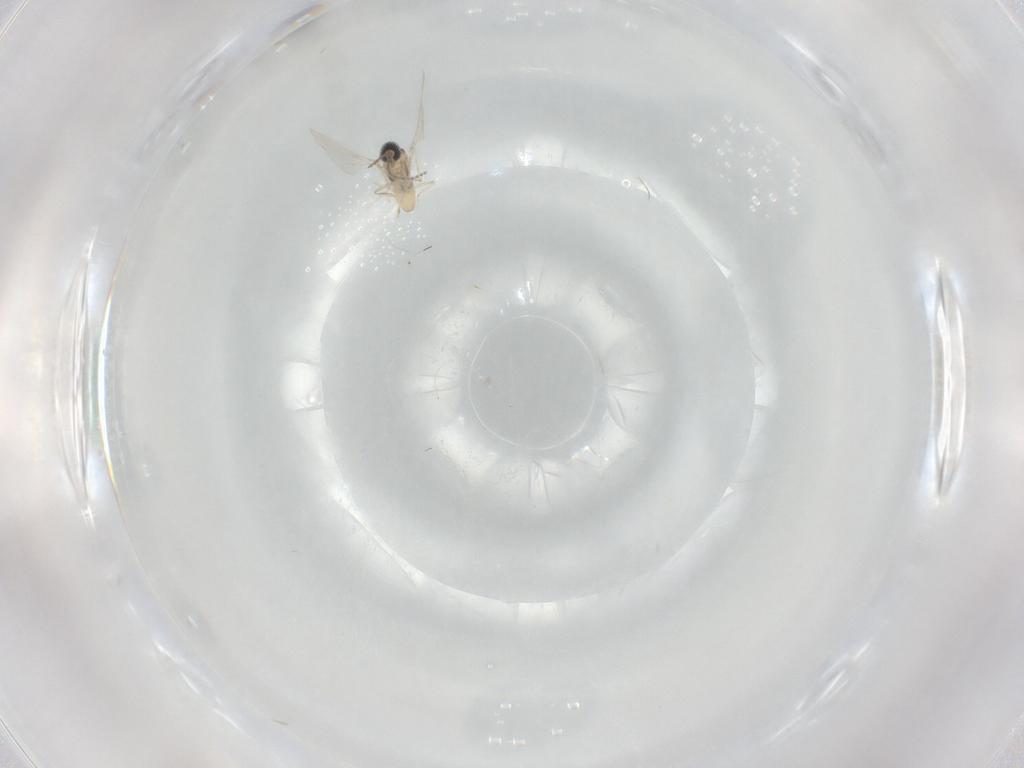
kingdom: Animalia
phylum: Arthropoda
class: Insecta
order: Diptera
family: Cecidomyiidae
